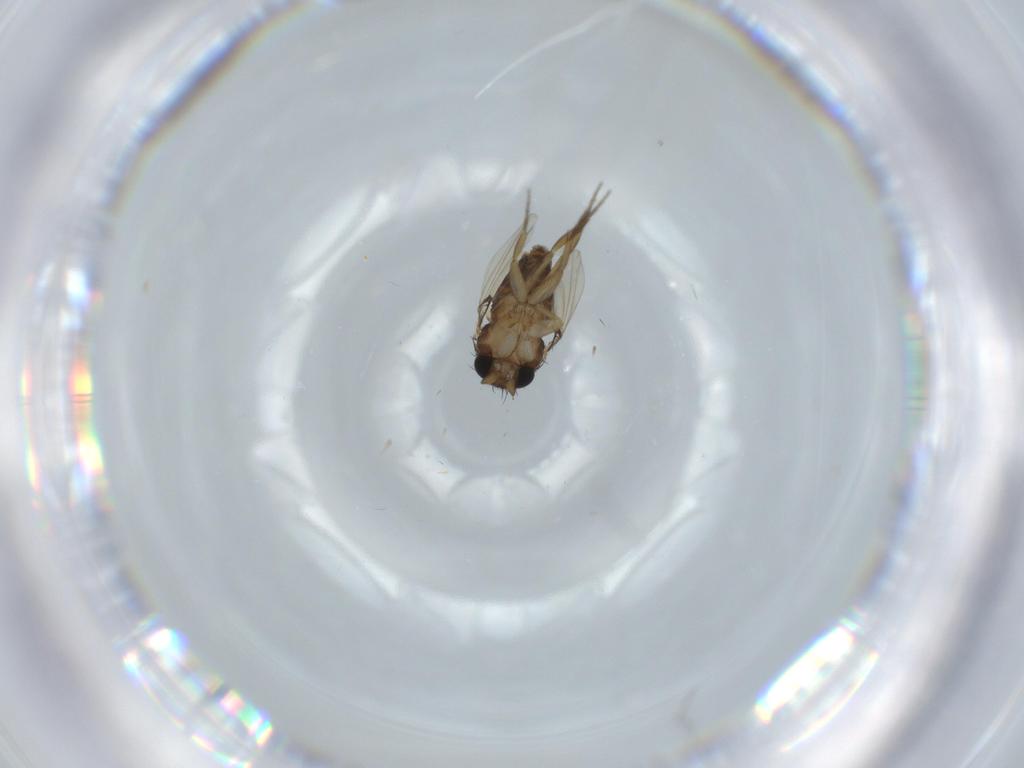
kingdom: Animalia
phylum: Arthropoda
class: Insecta
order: Diptera
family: Phoridae
